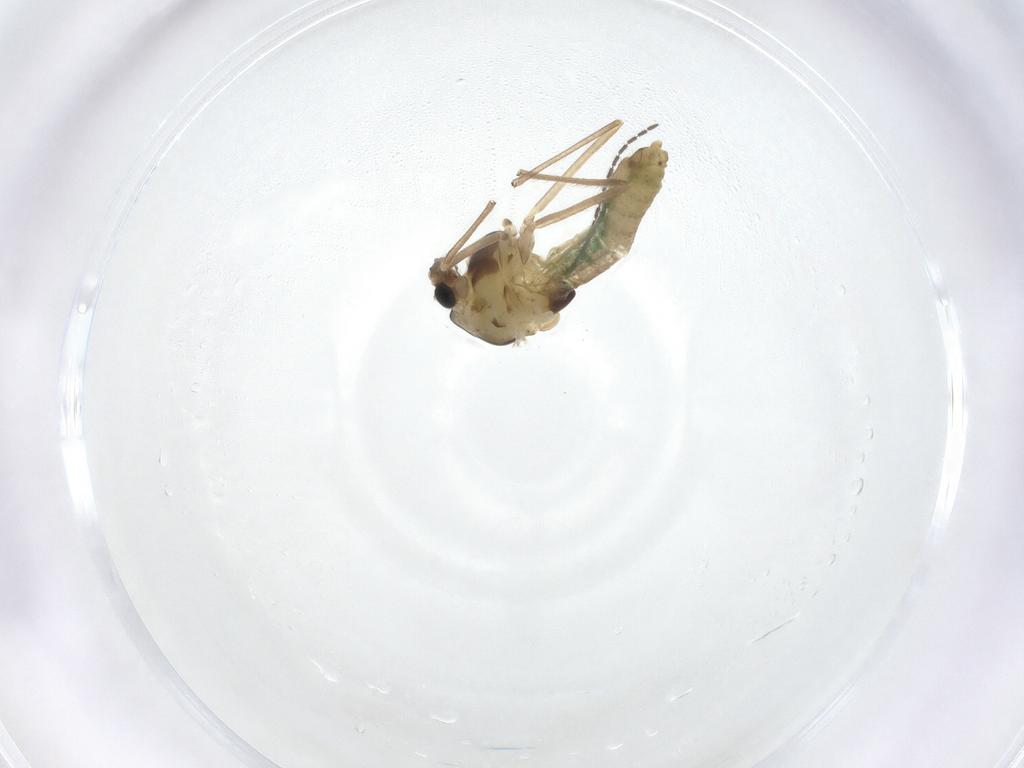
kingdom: Animalia
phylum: Arthropoda
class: Insecta
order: Diptera
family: Chironomidae
